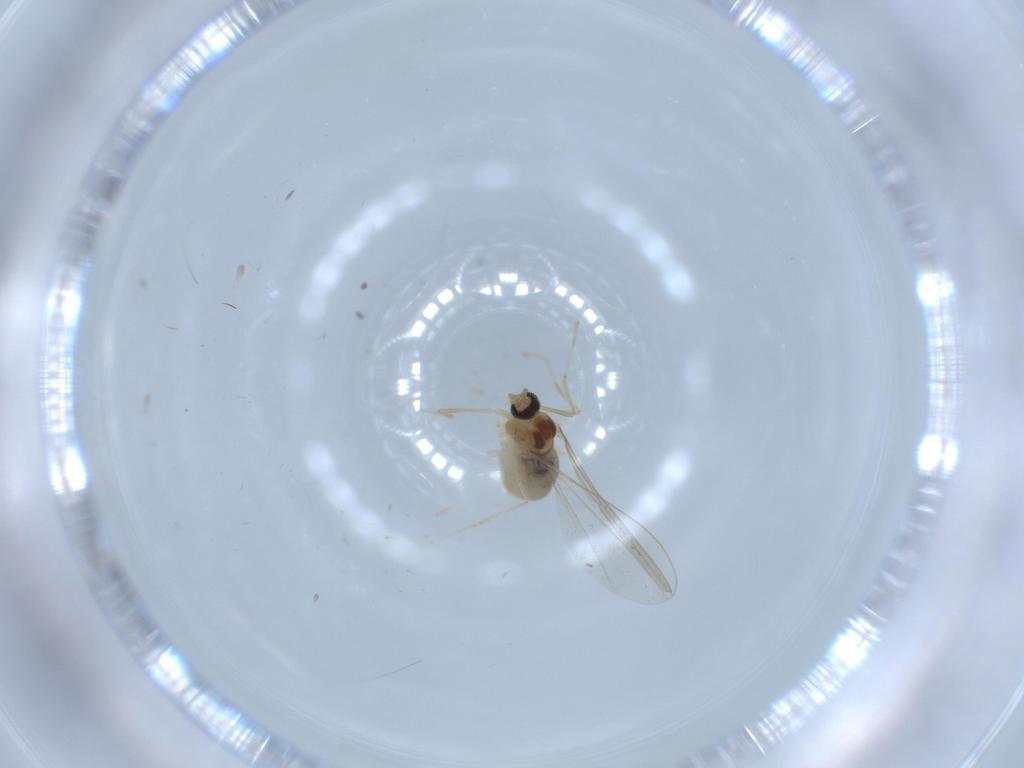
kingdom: Animalia
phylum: Arthropoda
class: Insecta
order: Diptera
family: Cecidomyiidae
